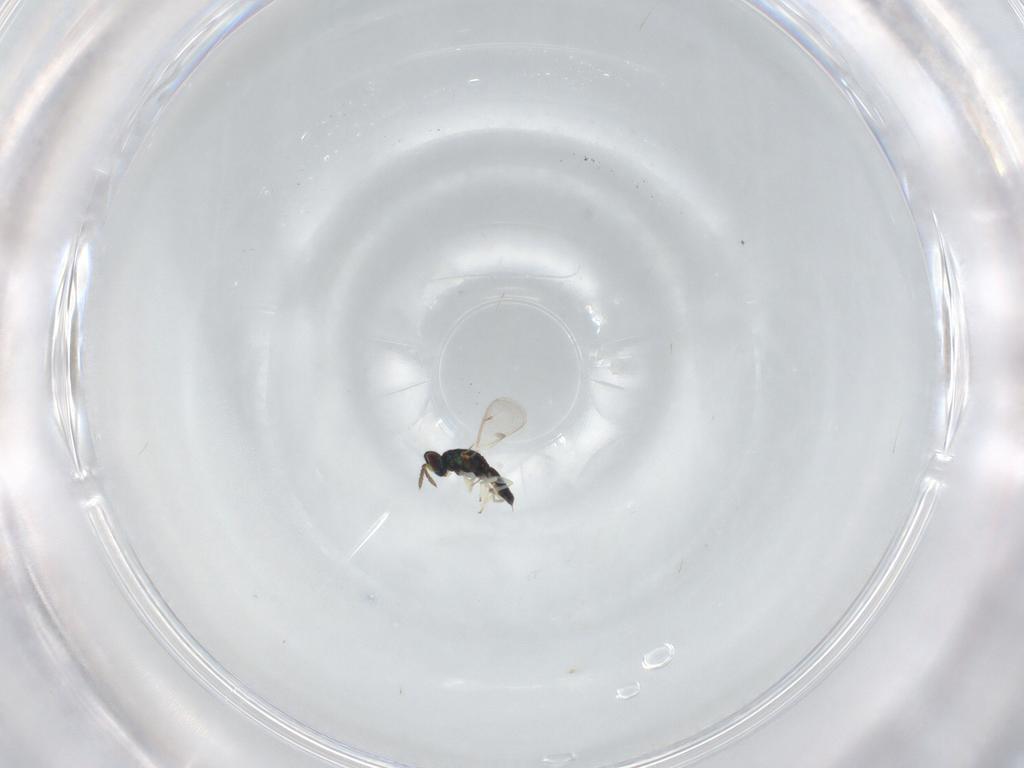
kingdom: Animalia
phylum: Arthropoda
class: Insecta
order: Hymenoptera
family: Eulophidae
